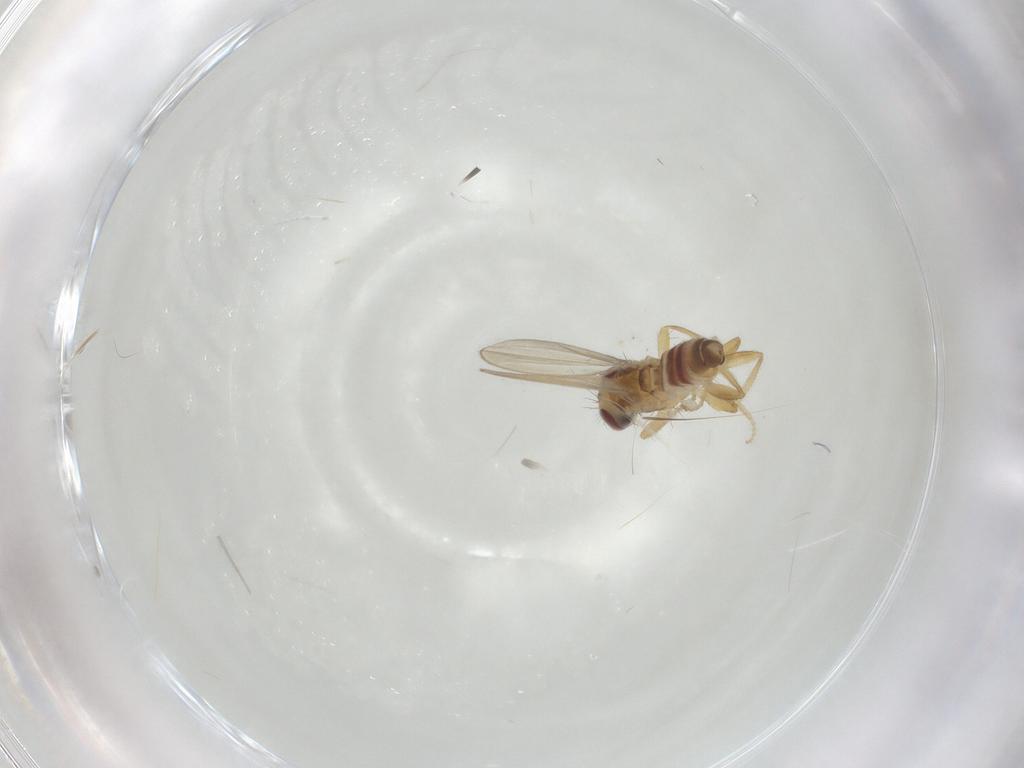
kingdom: Animalia
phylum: Arthropoda
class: Insecta
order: Diptera
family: Periscelididae
